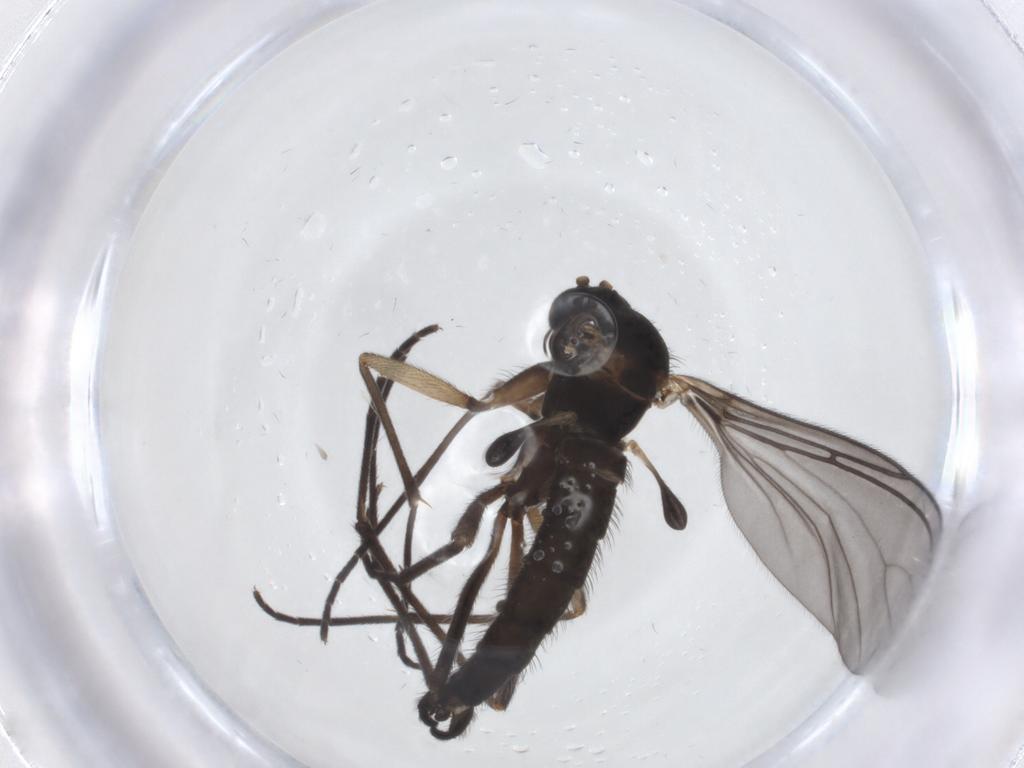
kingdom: Animalia
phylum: Arthropoda
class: Insecta
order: Diptera
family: Sciaridae
